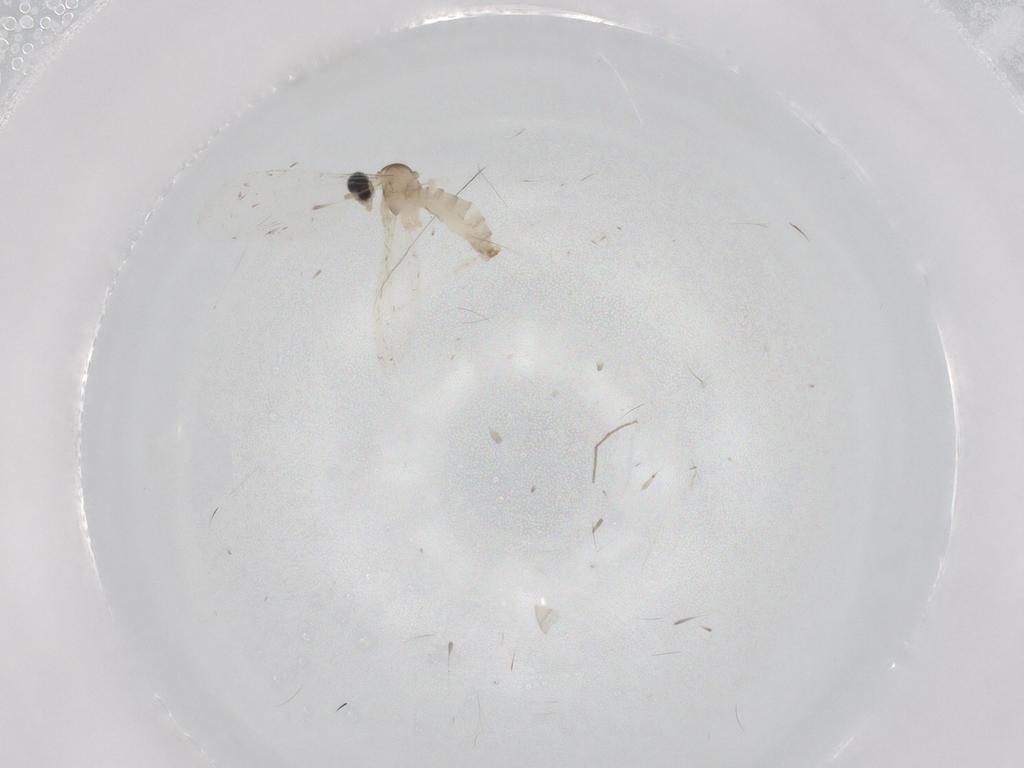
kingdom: Animalia
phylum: Arthropoda
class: Insecta
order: Diptera
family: Cecidomyiidae
